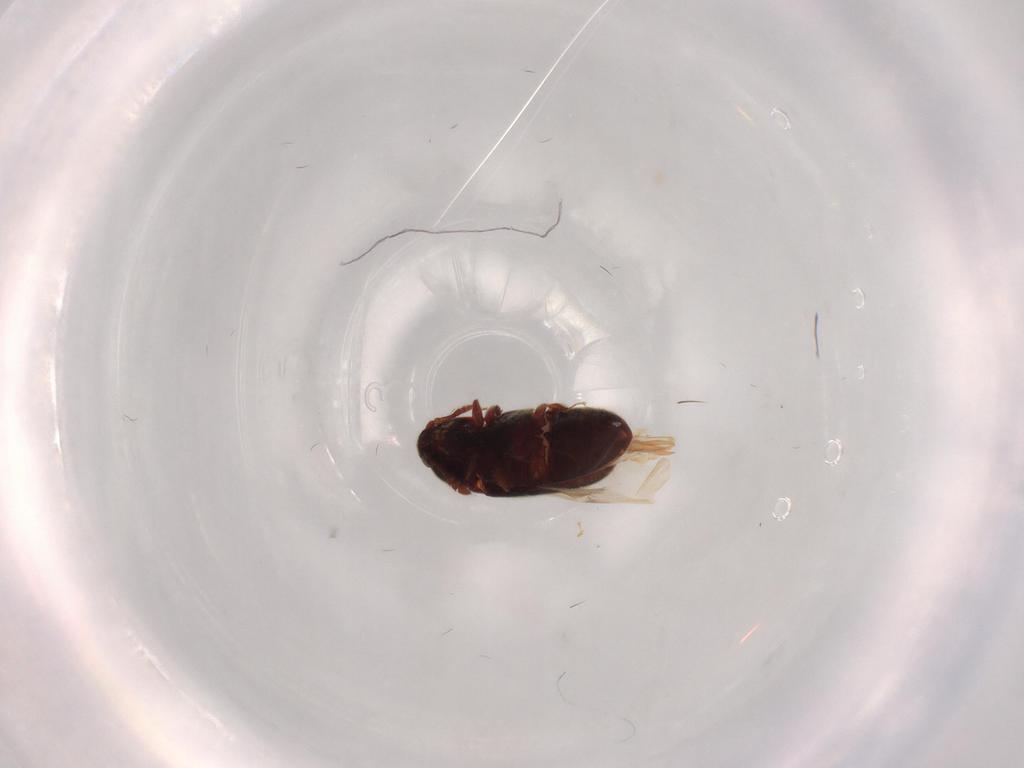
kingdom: Animalia
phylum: Arthropoda
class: Insecta
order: Coleoptera
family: Throscidae
